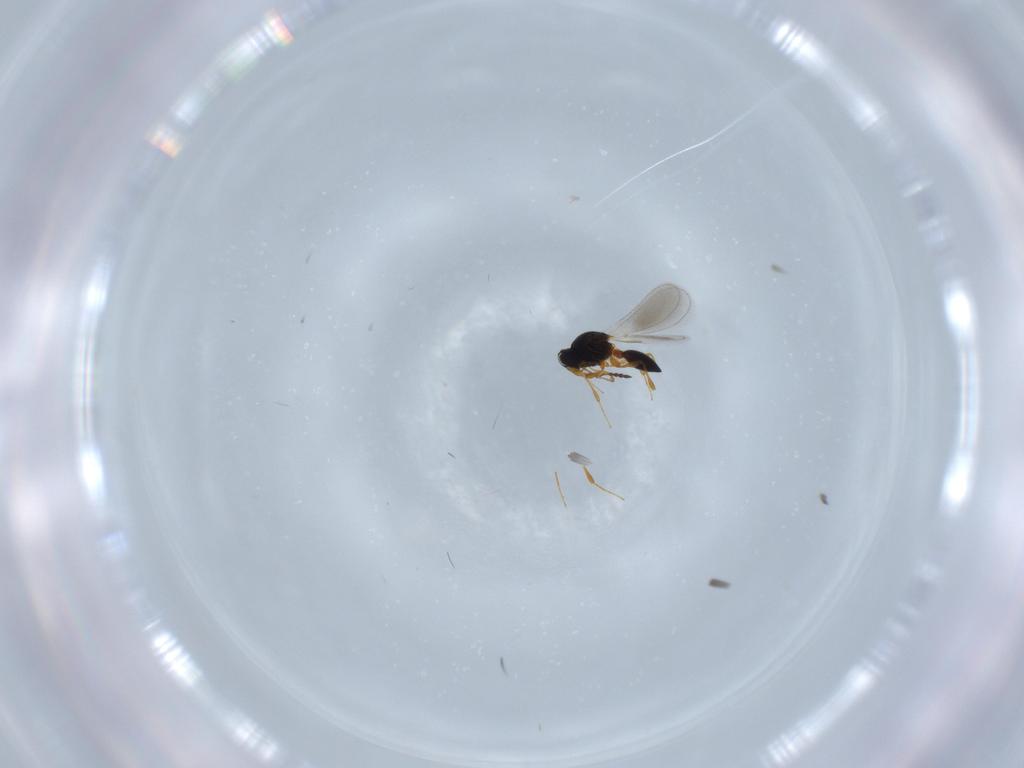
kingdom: Animalia
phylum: Arthropoda
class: Insecta
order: Hymenoptera
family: Platygastridae
